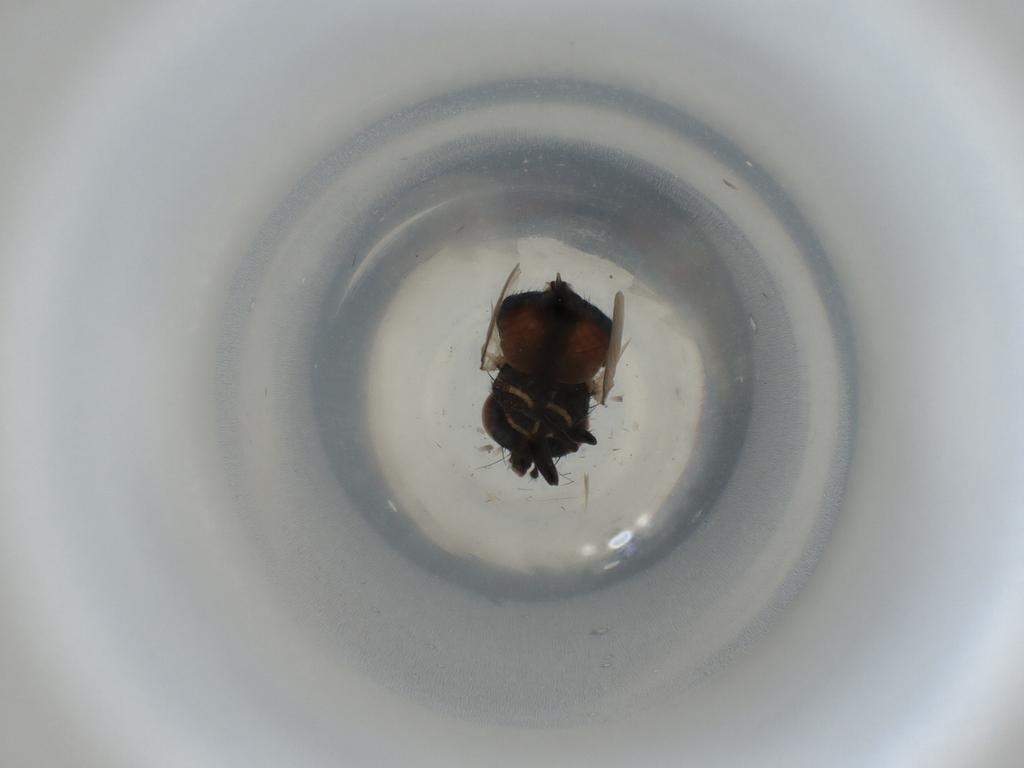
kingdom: Animalia
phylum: Arthropoda
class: Insecta
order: Diptera
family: Lonchaeidae
